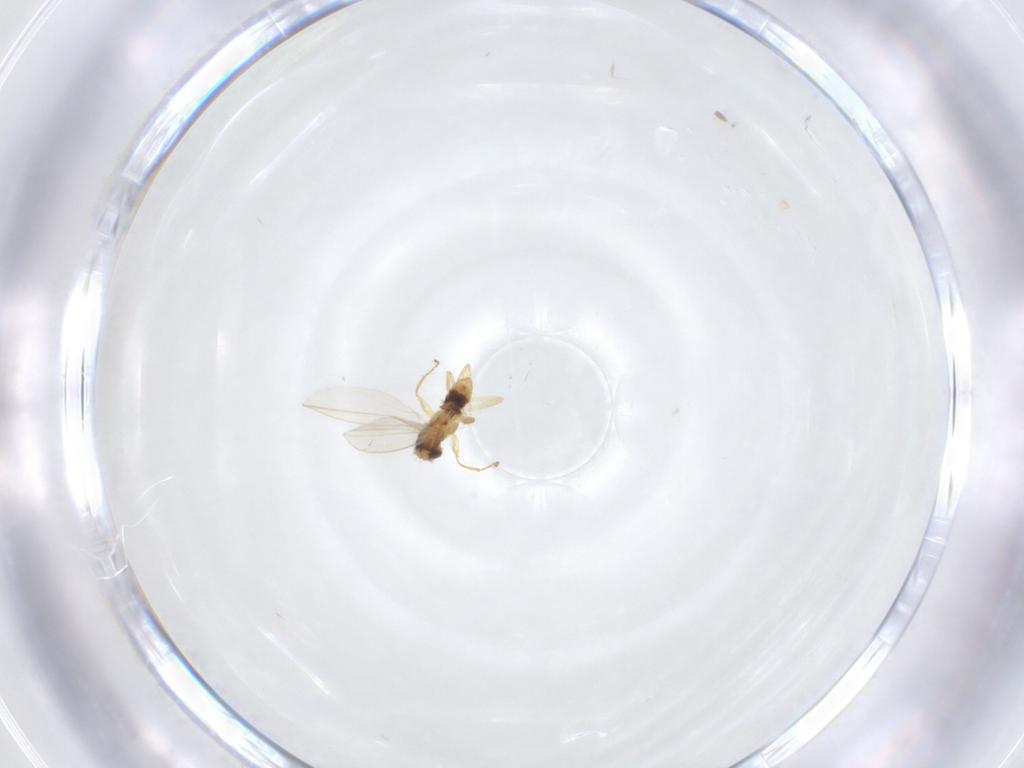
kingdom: Animalia
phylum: Arthropoda
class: Insecta
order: Diptera
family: Periscelididae
